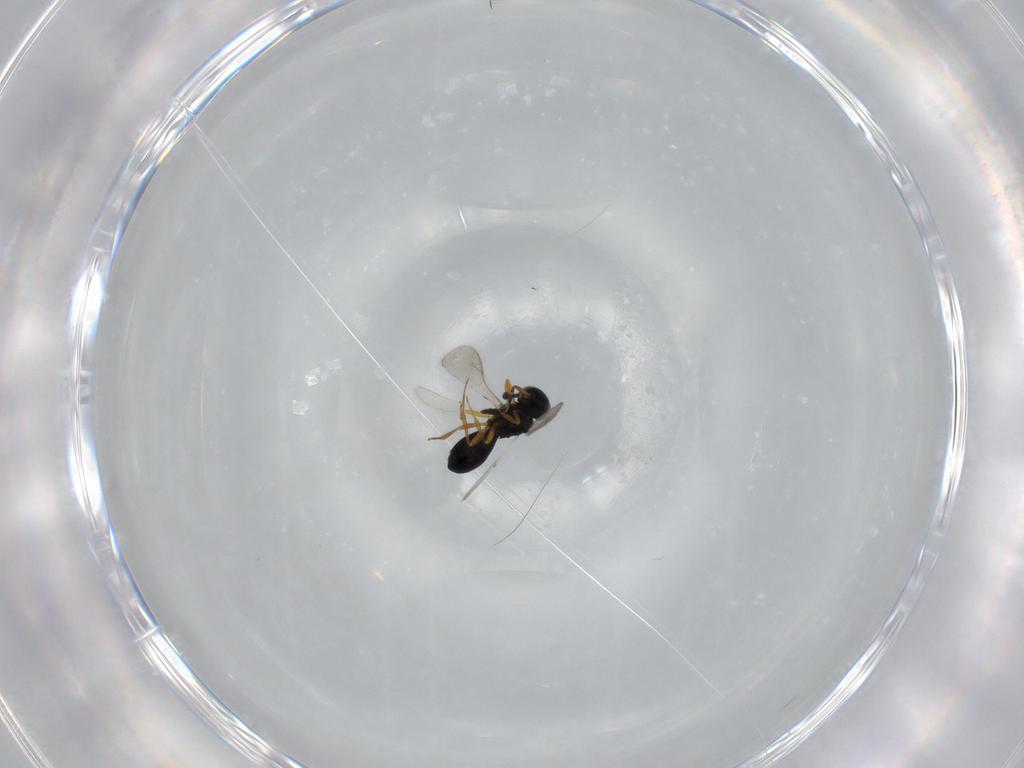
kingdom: Animalia
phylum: Arthropoda
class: Insecta
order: Hymenoptera
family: Scelionidae
